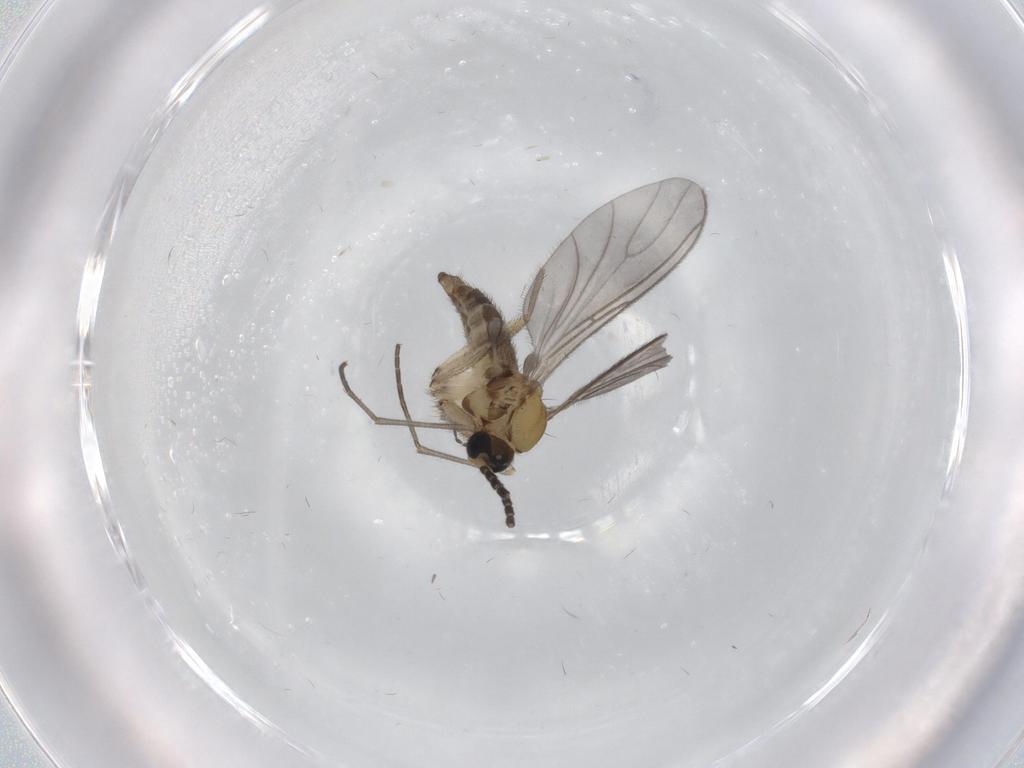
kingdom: Animalia
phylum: Arthropoda
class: Insecta
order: Diptera
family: Sciaridae
